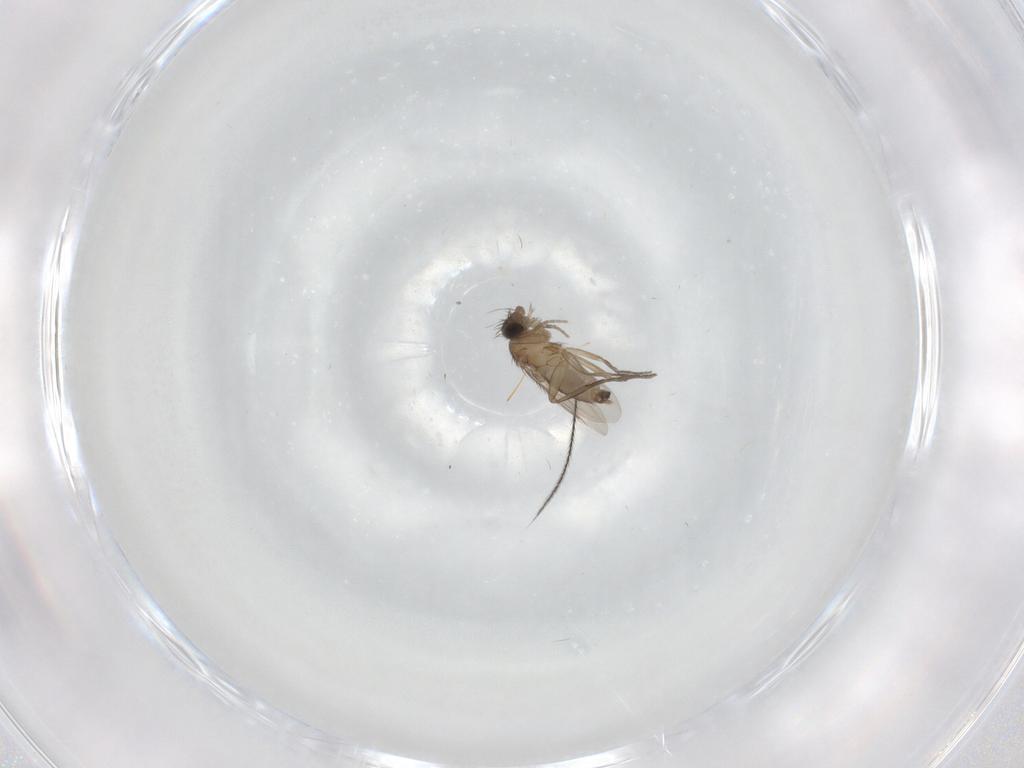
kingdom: Animalia
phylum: Arthropoda
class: Insecta
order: Diptera
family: Phoridae
